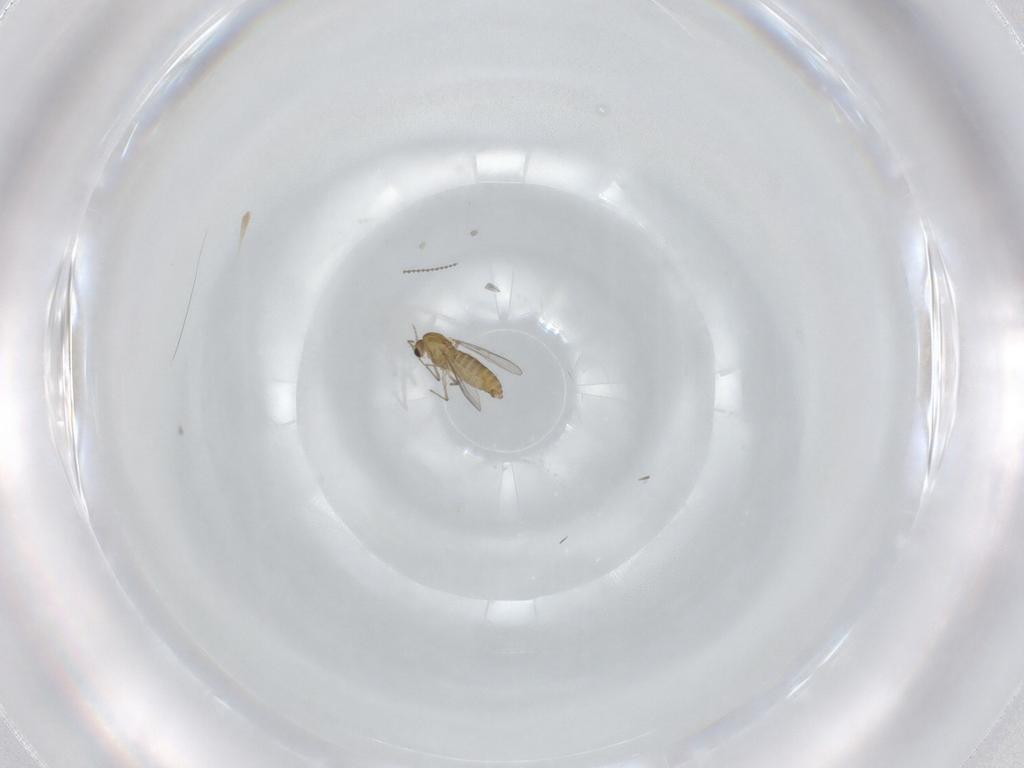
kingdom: Animalia
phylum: Arthropoda
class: Insecta
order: Diptera
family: Chironomidae
